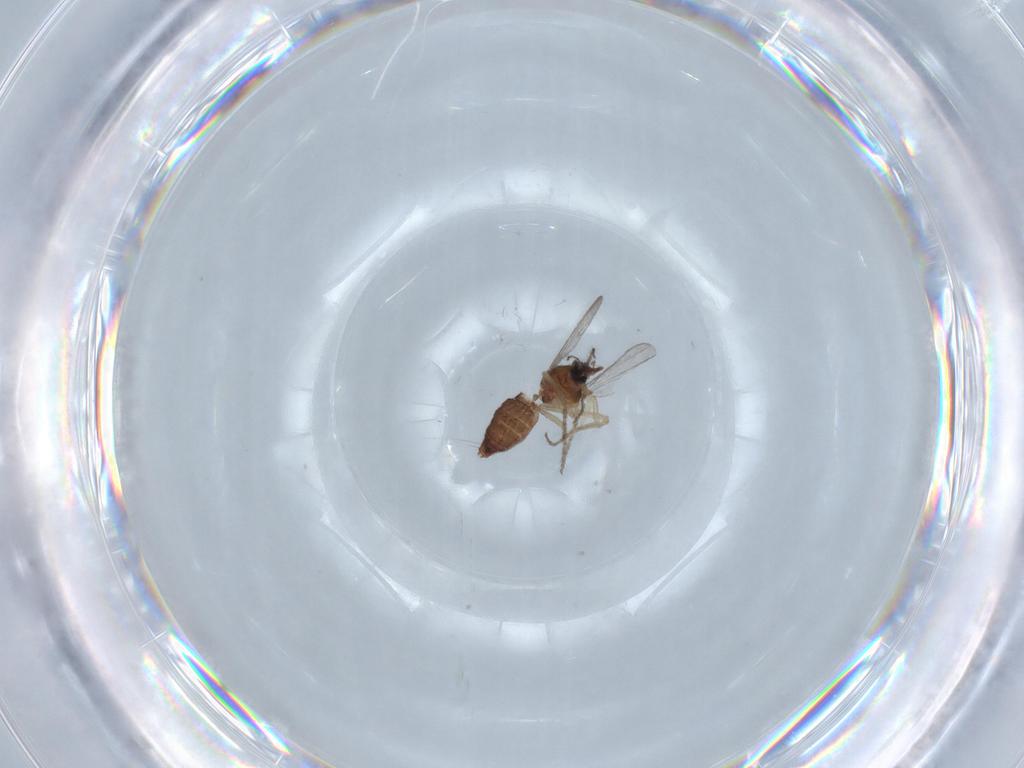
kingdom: Animalia
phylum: Arthropoda
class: Insecta
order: Diptera
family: Ceratopogonidae
